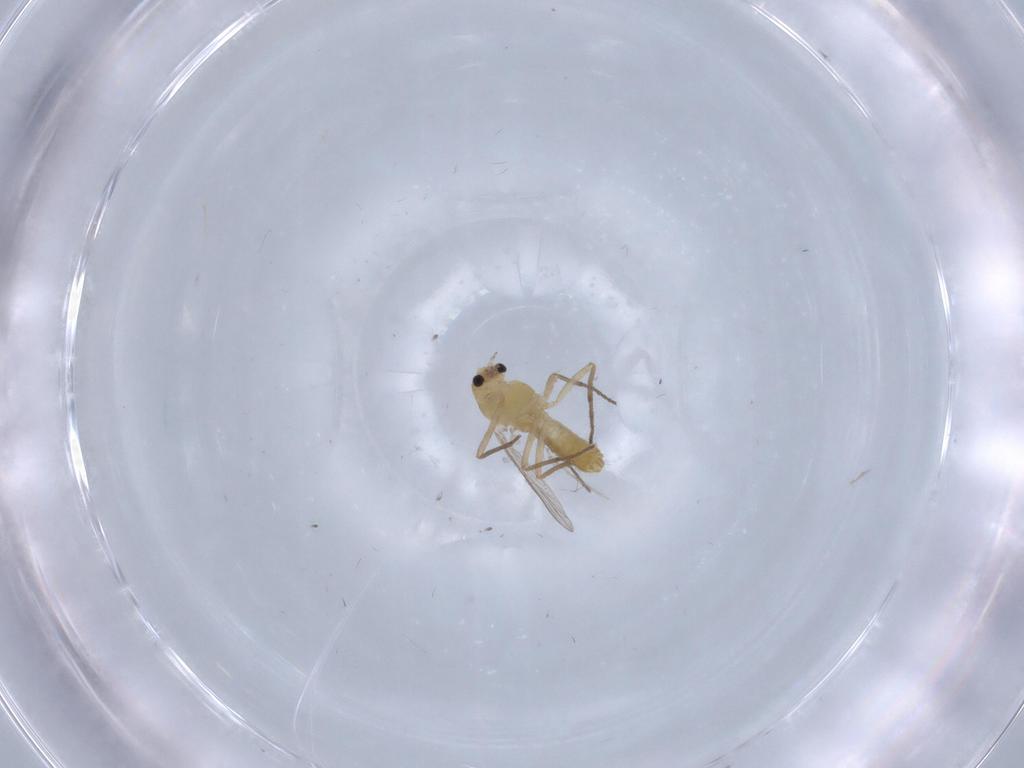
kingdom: Animalia
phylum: Arthropoda
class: Insecta
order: Diptera
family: Chironomidae
